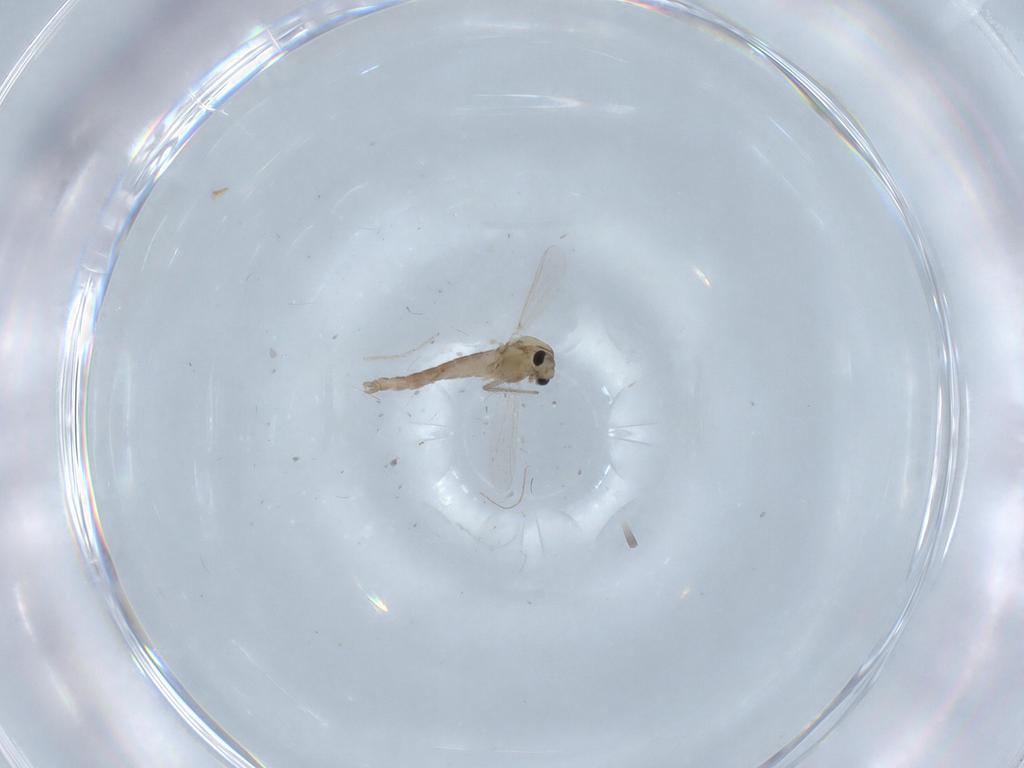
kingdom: Animalia
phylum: Arthropoda
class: Insecta
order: Diptera
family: Chironomidae
